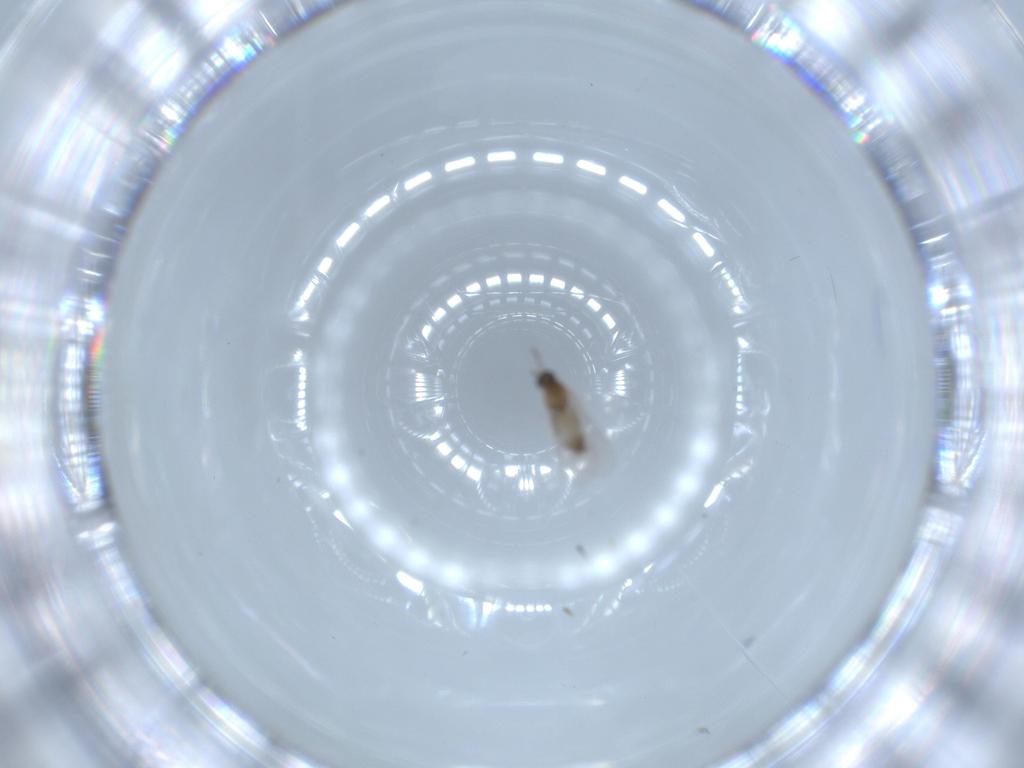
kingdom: Animalia
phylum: Arthropoda
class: Insecta
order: Diptera
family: Cecidomyiidae
